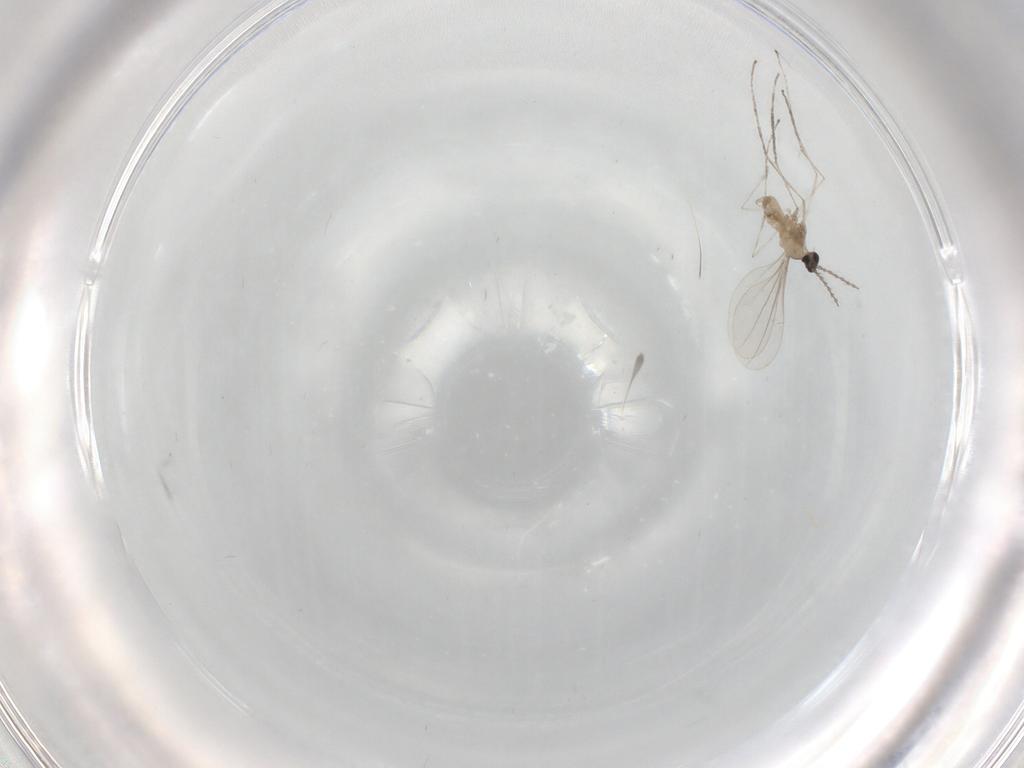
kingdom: Animalia
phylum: Arthropoda
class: Insecta
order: Diptera
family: Cecidomyiidae
